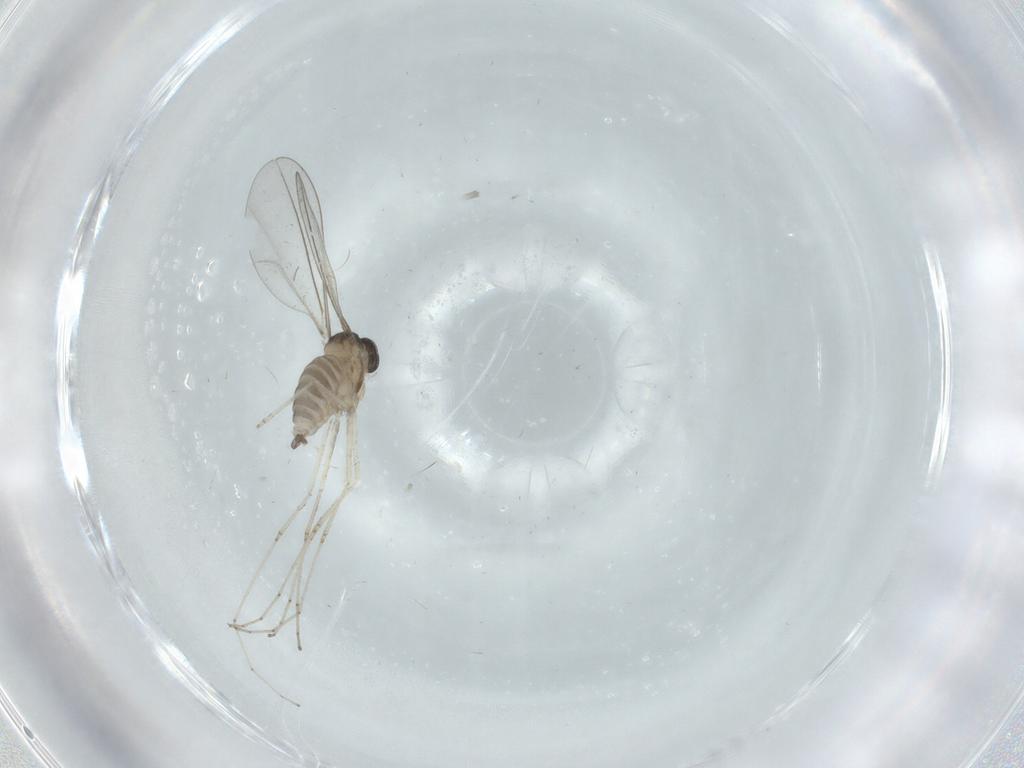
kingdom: Animalia
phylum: Arthropoda
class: Insecta
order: Diptera
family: Cecidomyiidae
